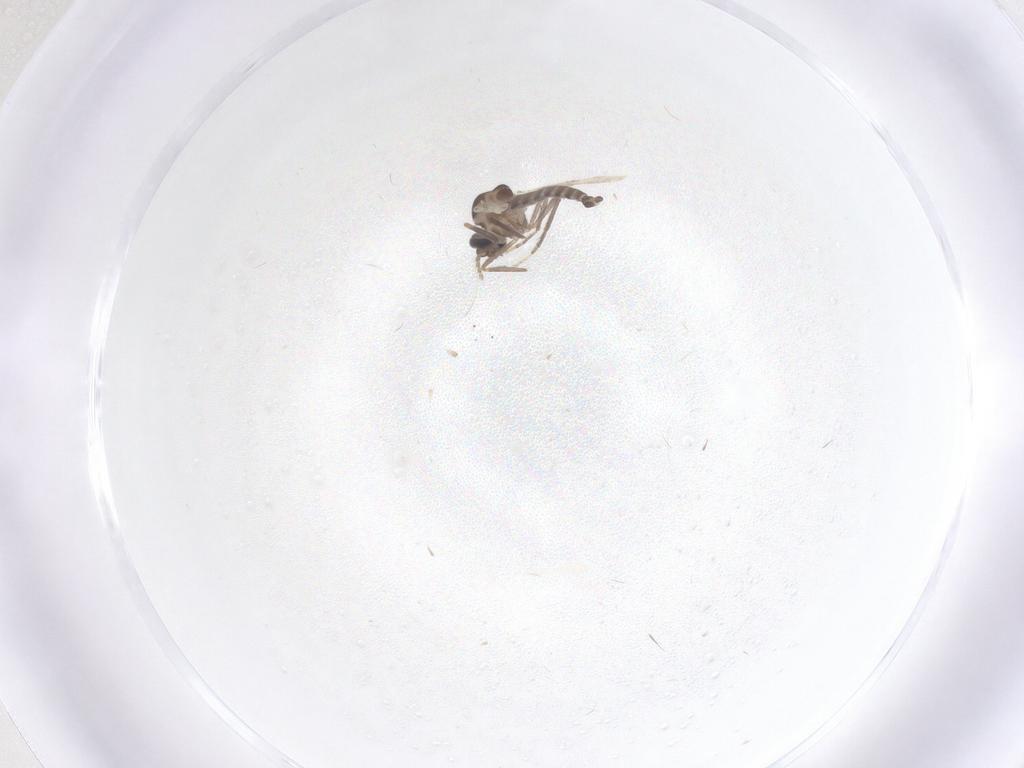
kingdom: Animalia
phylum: Arthropoda
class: Insecta
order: Diptera
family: Ceratopogonidae
